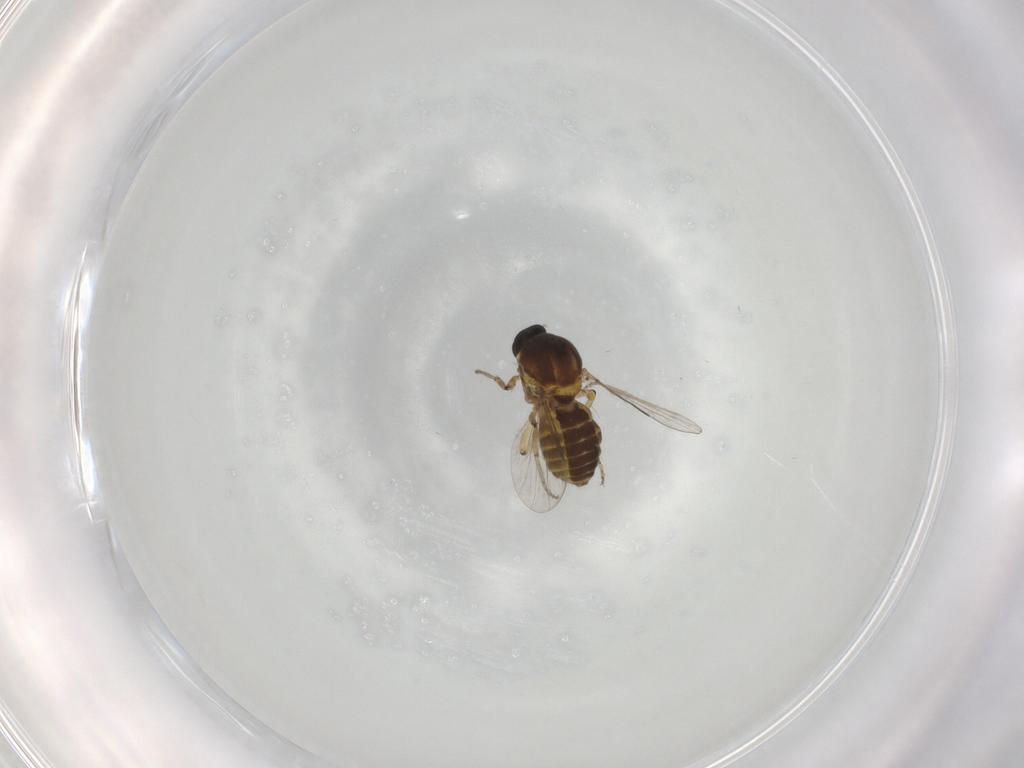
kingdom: Animalia
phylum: Arthropoda
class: Insecta
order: Diptera
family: Ceratopogonidae
